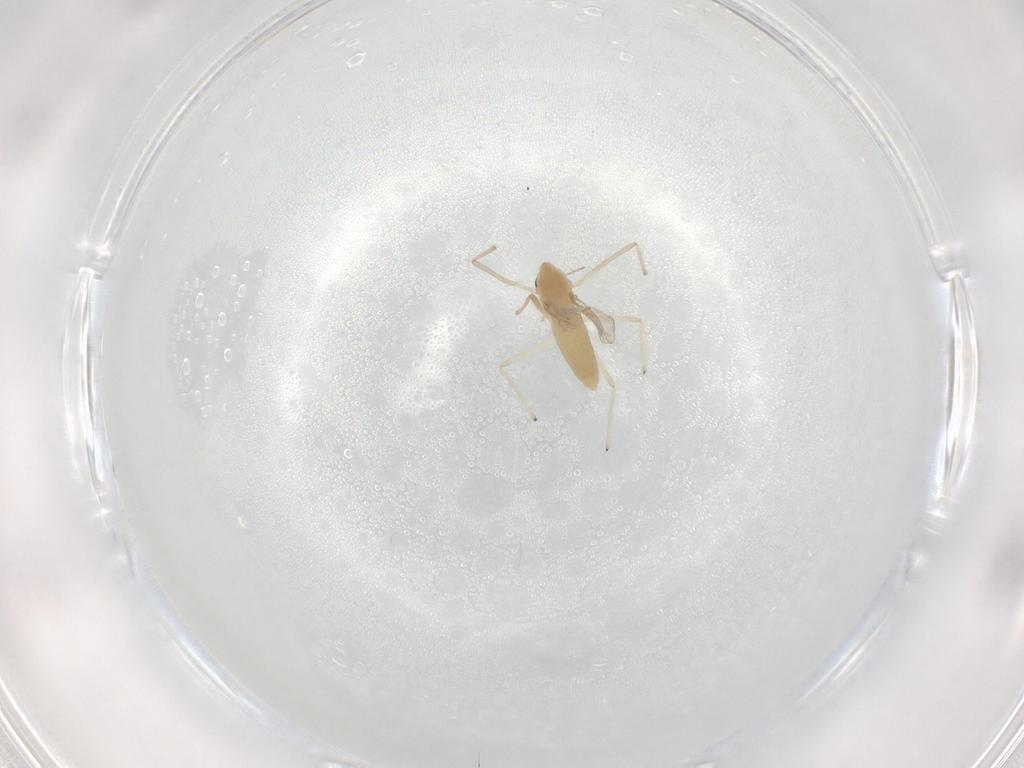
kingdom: Animalia
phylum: Arthropoda
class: Insecta
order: Diptera
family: Chironomidae
